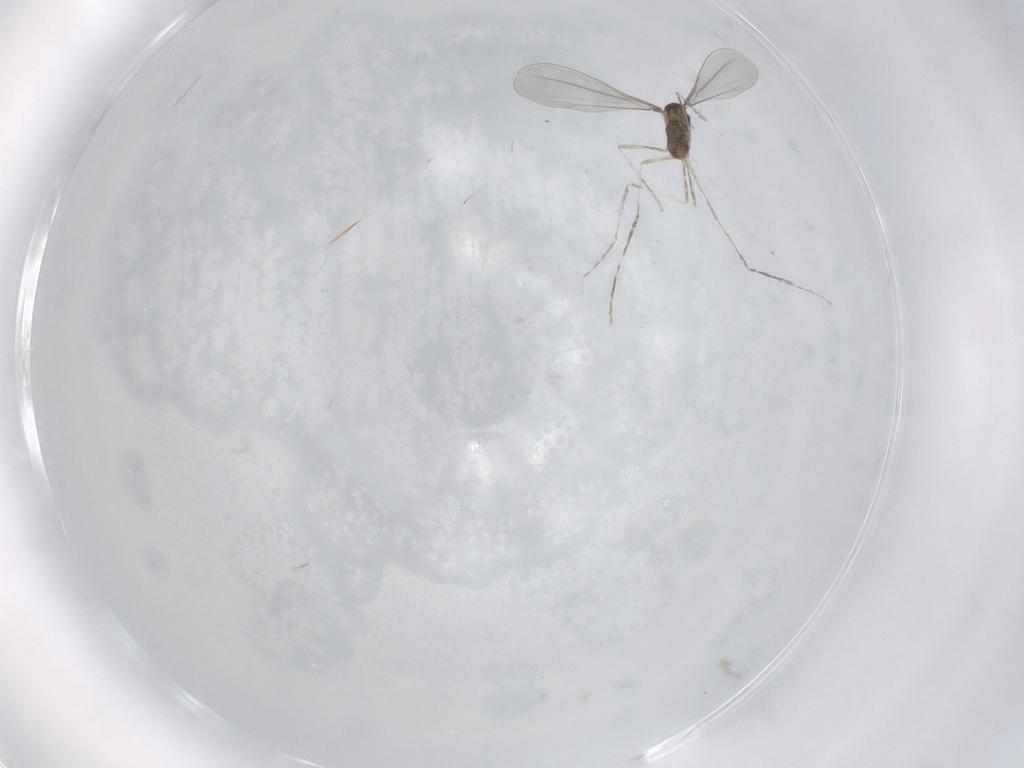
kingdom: Animalia
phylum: Arthropoda
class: Insecta
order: Diptera
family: Cecidomyiidae
